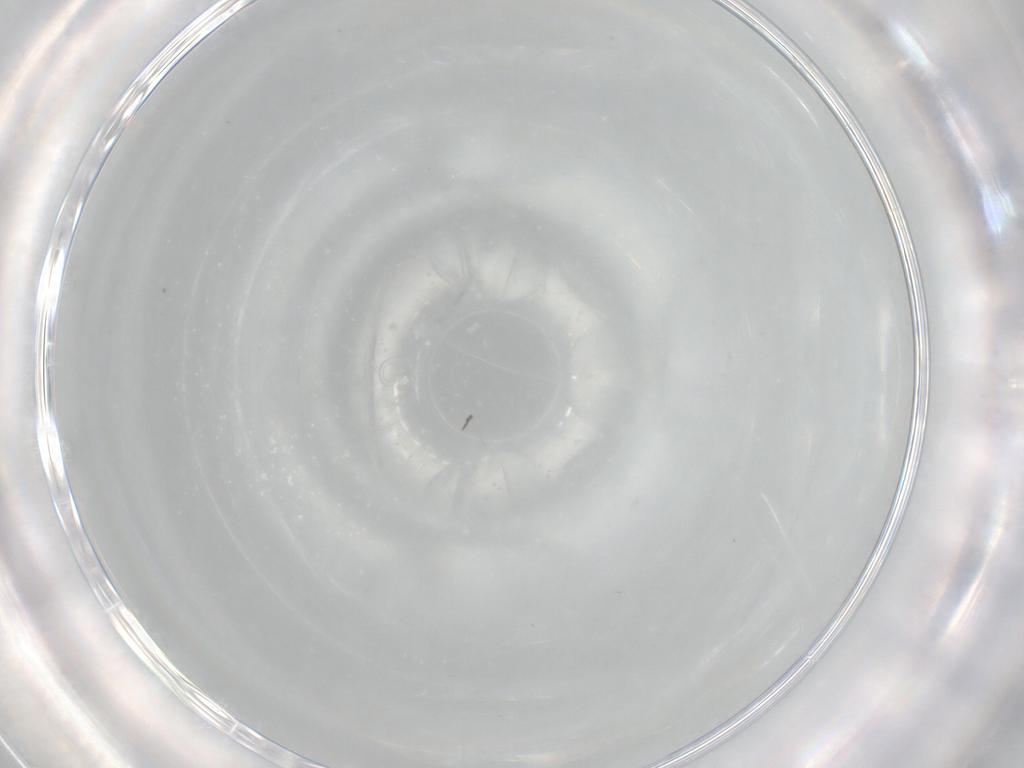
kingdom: Animalia
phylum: Arthropoda
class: Insecta
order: Lepidoptera
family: Tineidae
